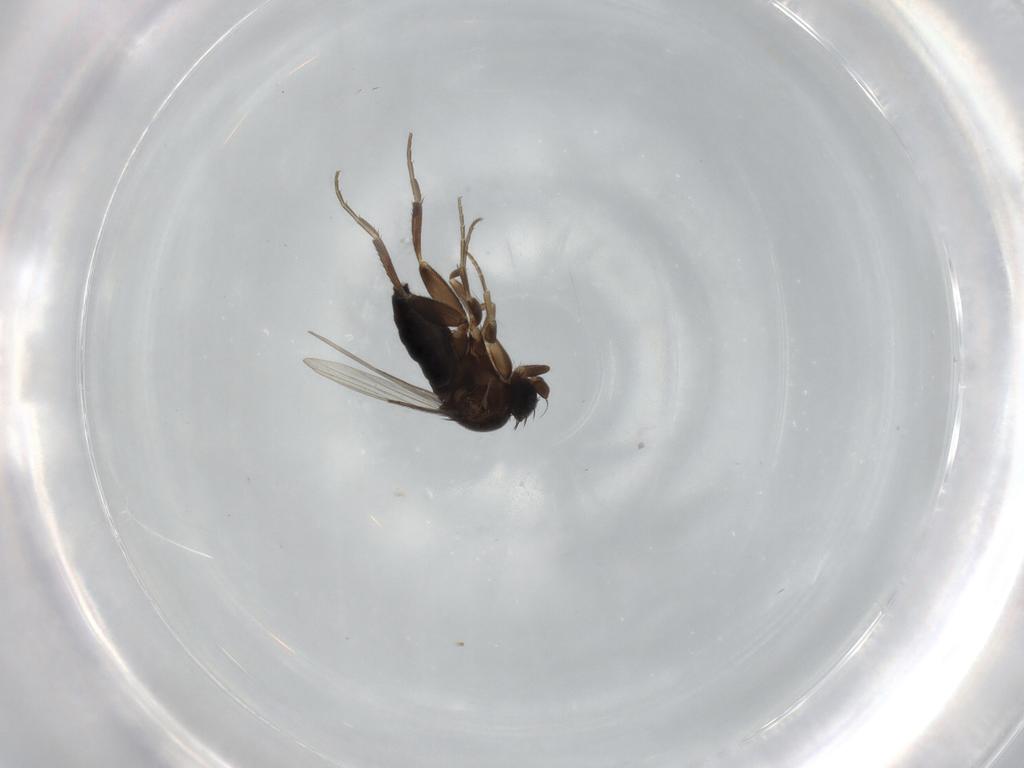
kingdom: Animalia
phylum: Arthropoda
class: Insecta
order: Diptera
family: Phoridae
